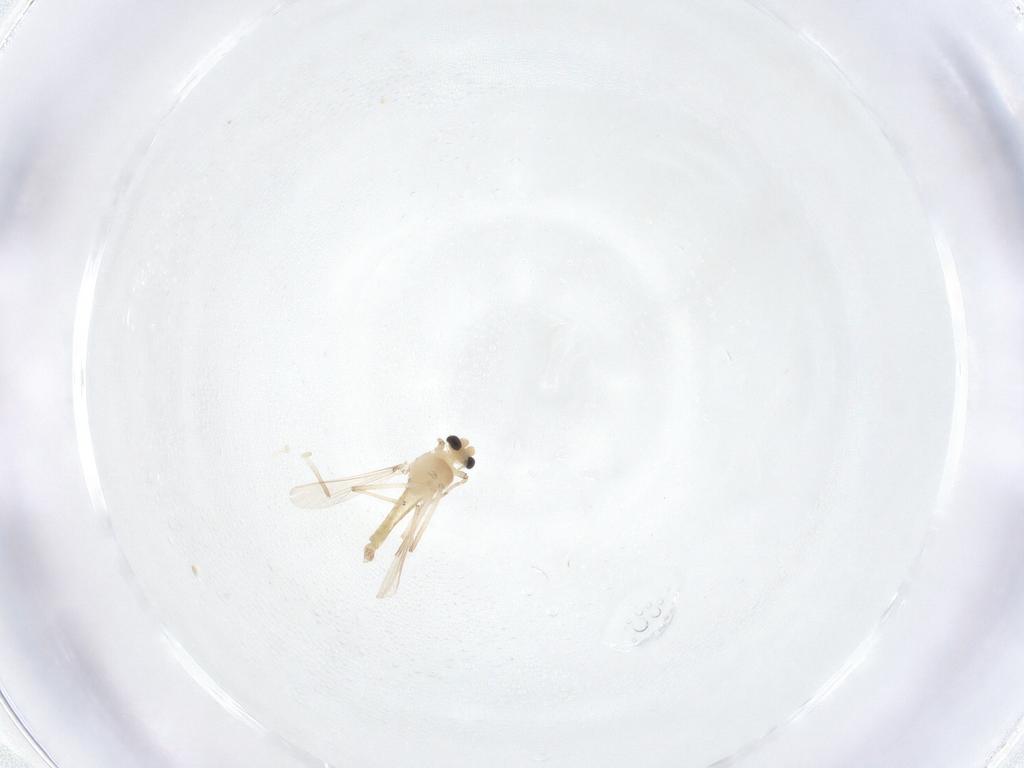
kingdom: Animalia
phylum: Arthropoda
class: Insecta
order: Diptera
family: Chironomidae
